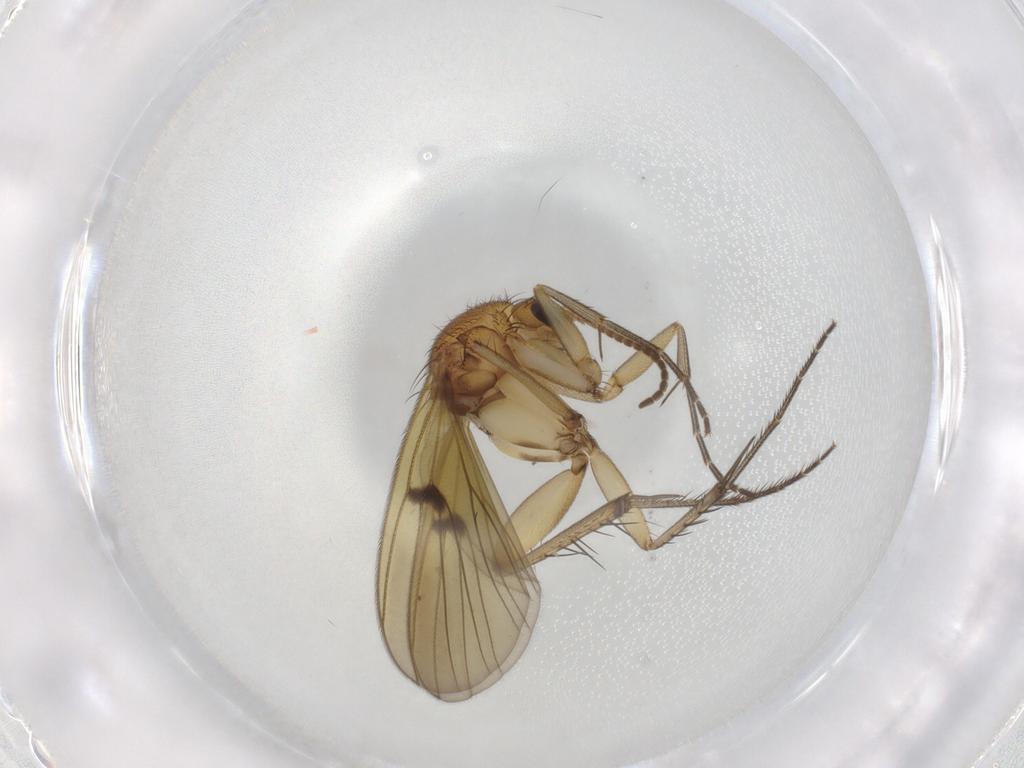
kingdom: Animalia
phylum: Arthropoda
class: Insecta
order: Diptera
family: Mycetophilidae
